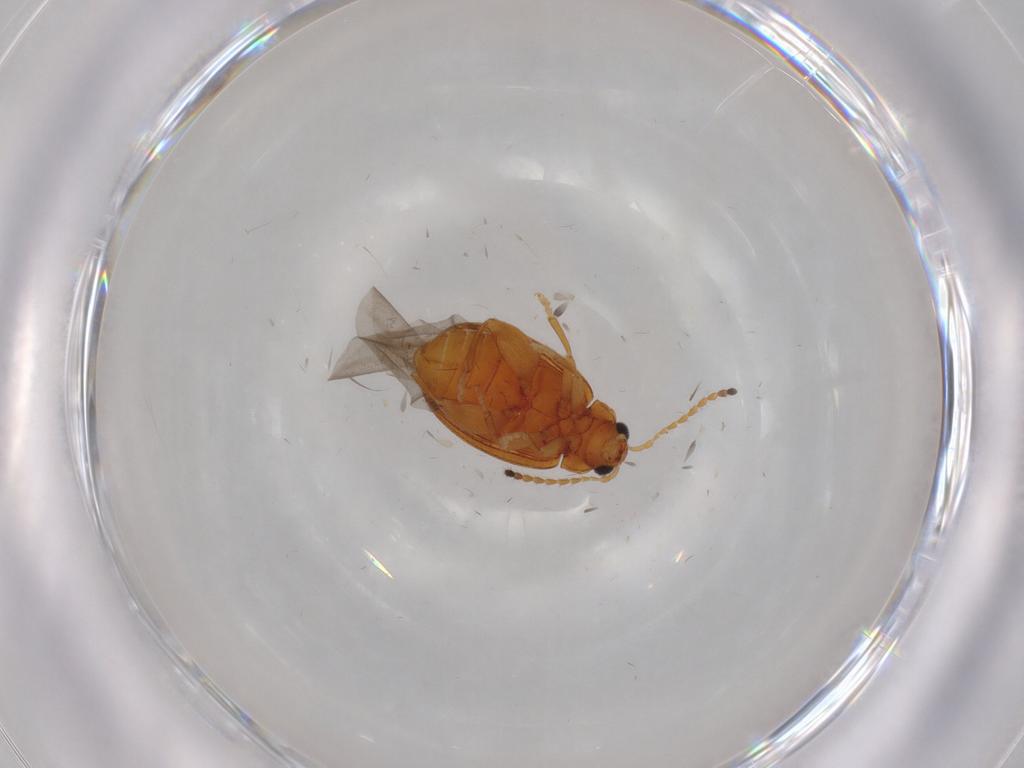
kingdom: Animalia
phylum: Arthropoda
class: Insecta
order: Coleoptera
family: Chrysomelidae
